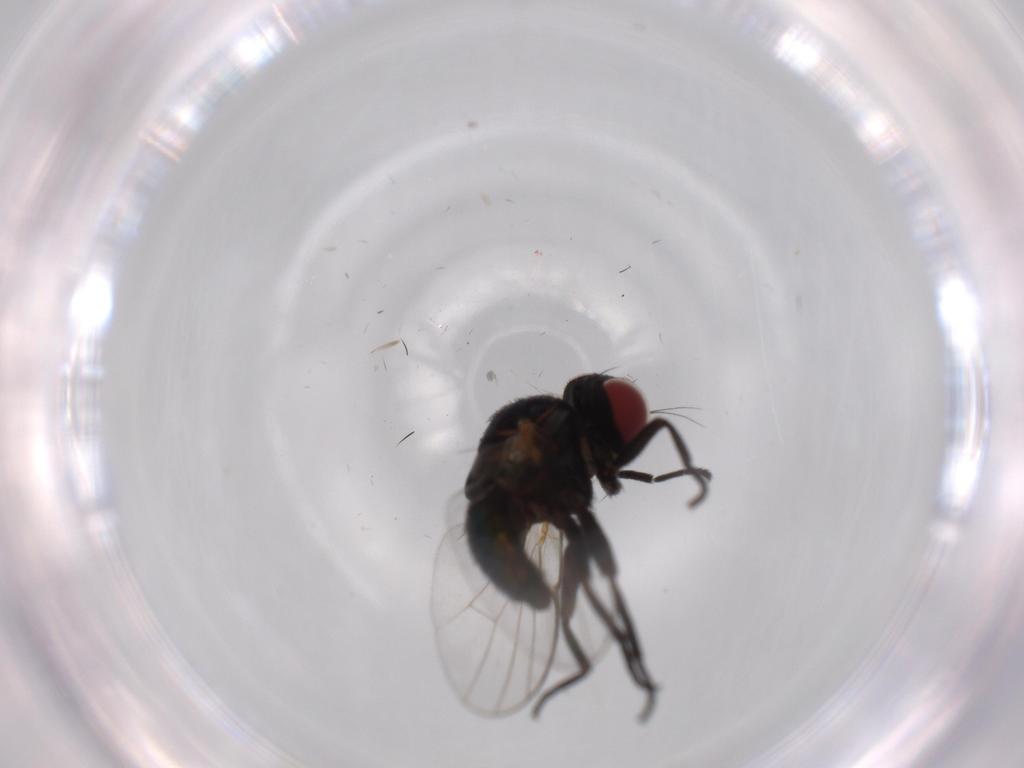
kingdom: Animalia
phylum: Arthropoda
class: Insecta
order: Diptera
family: Agromyzidae
